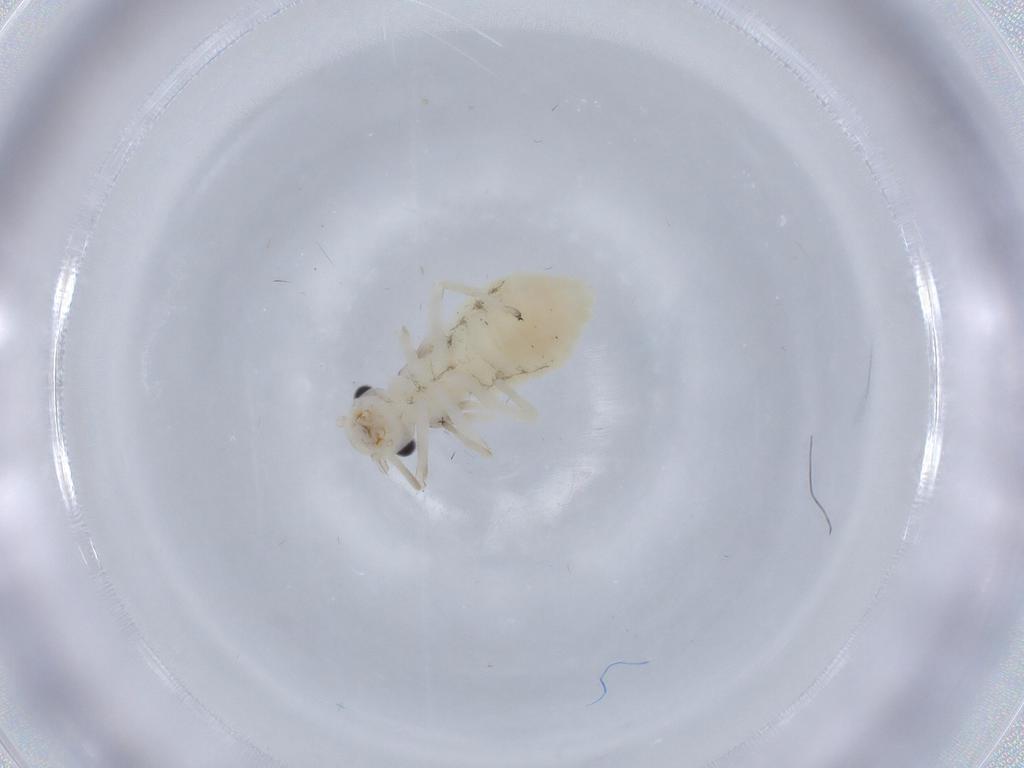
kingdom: Animalia
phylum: Arthropoda
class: Insecta
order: Psocodea
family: Stenopsocidae
